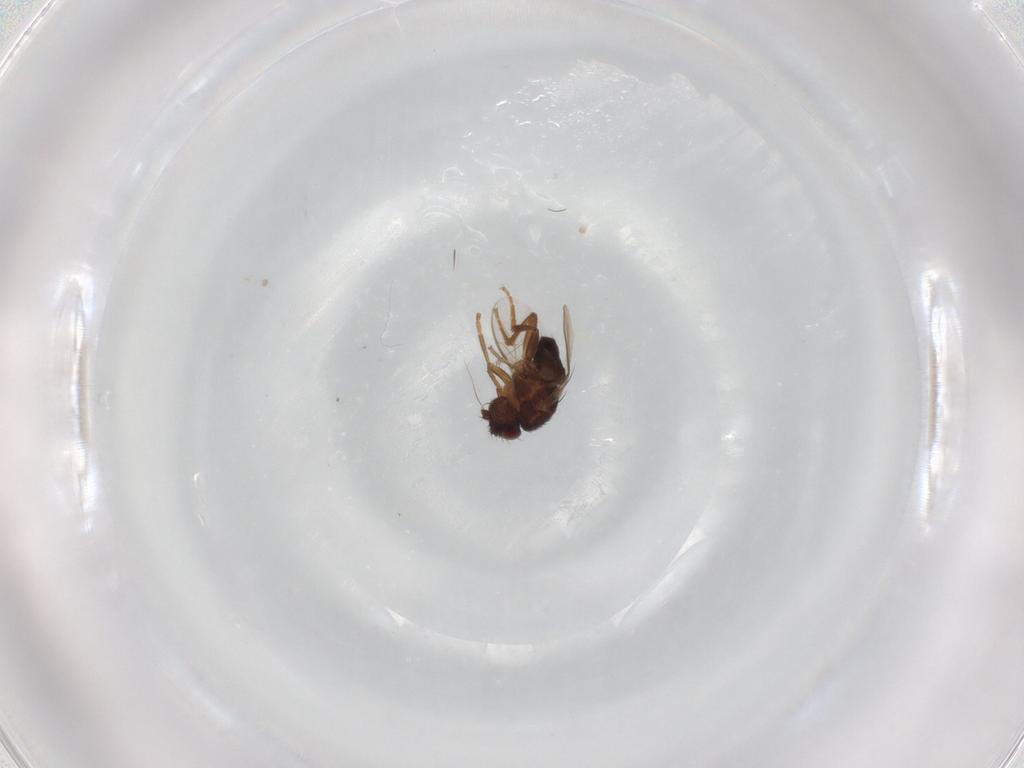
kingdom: Animalia
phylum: Arthropoda
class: Insecta
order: Diptera
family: Sphaeroceridae
